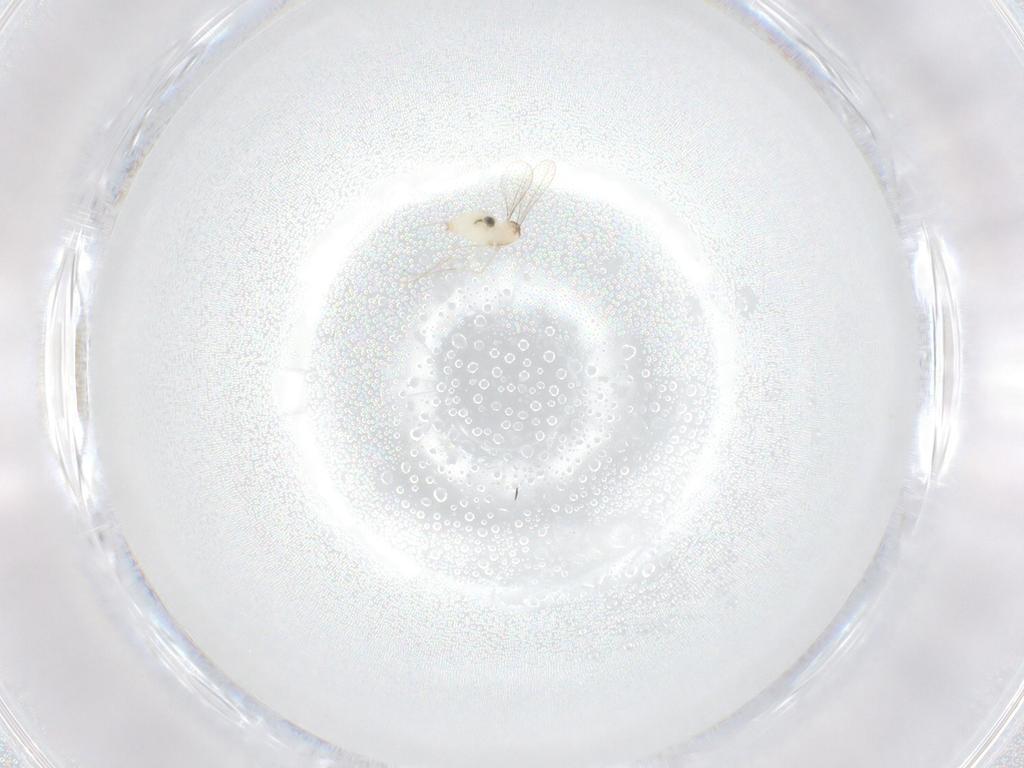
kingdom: Animalia
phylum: Arthropoda
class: Insecta
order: Diptera
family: Cecidomyiidae
